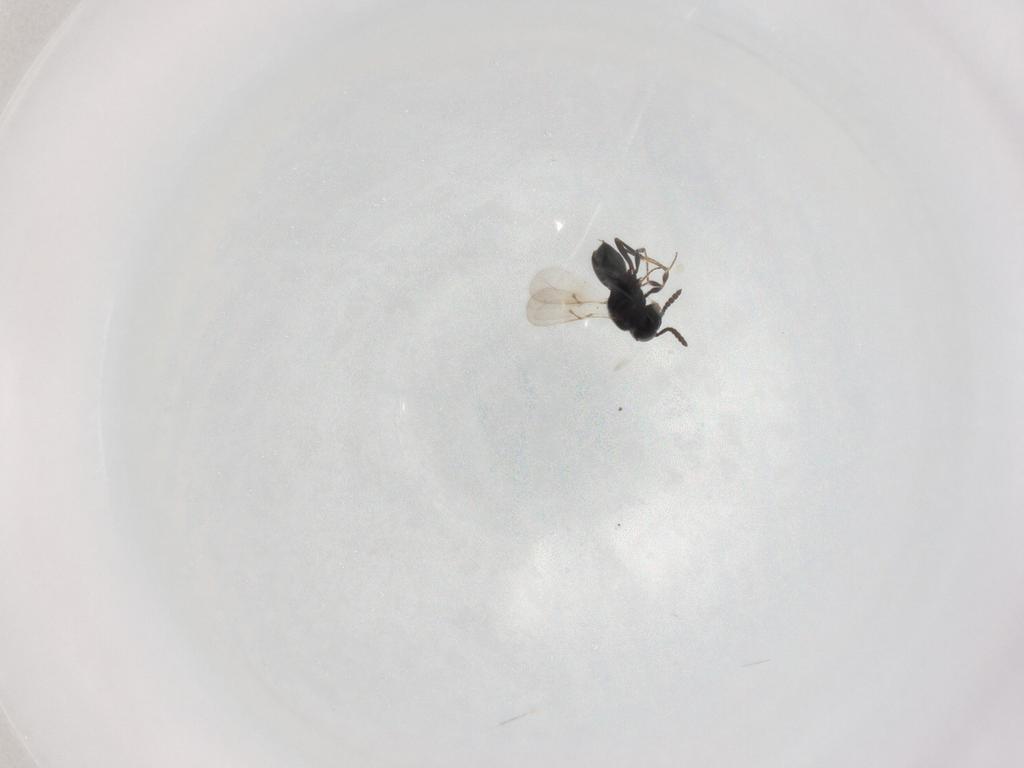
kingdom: Animalia
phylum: Arthropoda
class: Insecta
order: Hymenoptera
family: Scelionidae
